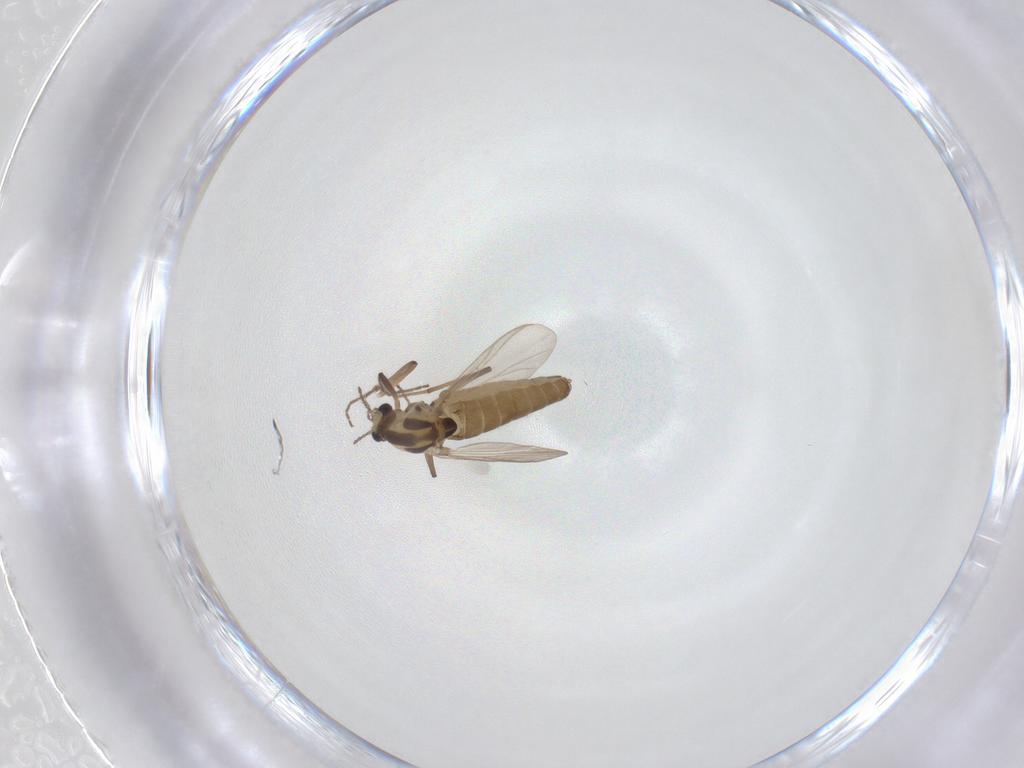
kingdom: Animalia
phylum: Arthropoda
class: Insecta
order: Diptera
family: Chironomidae
